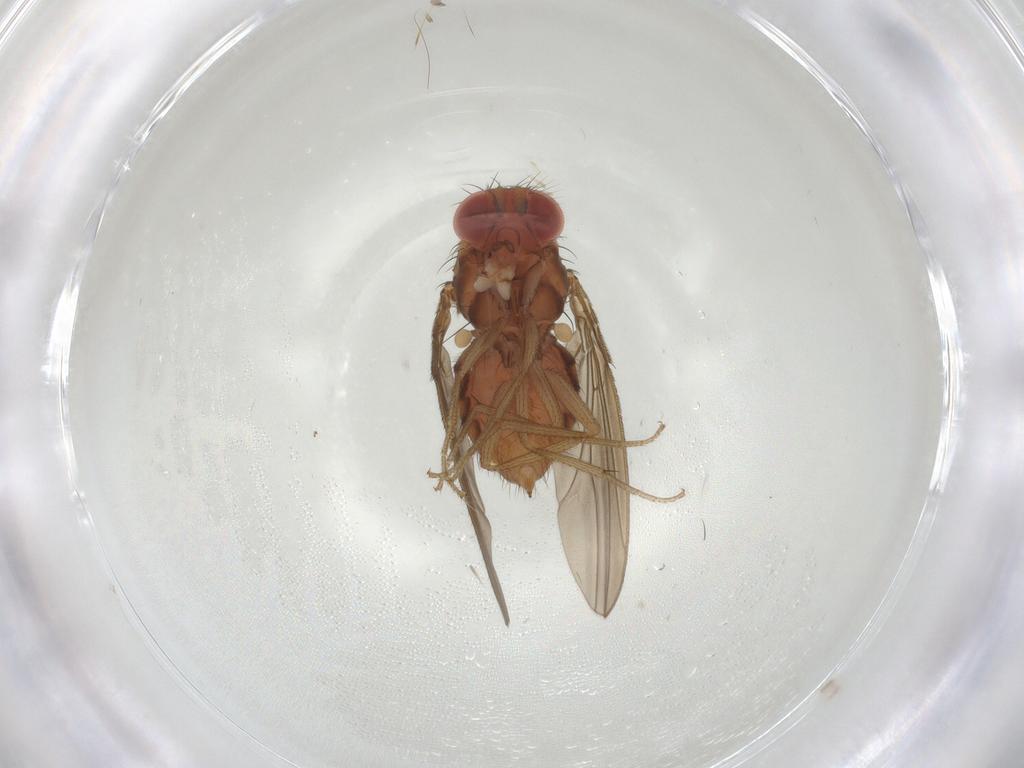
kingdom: Animalia
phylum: Arthropoda
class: Insecta
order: Diptera
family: Drosophilidae
